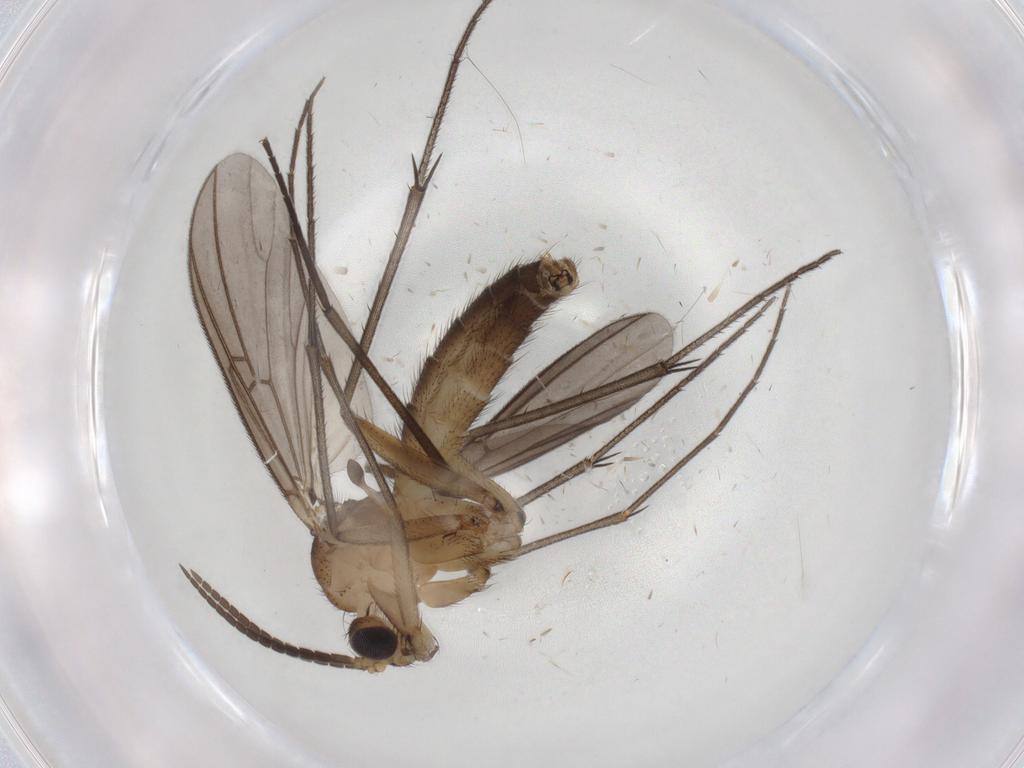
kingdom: Animalia
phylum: Arthropoda
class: Insecta
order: Diptera
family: Mycetophilidae
